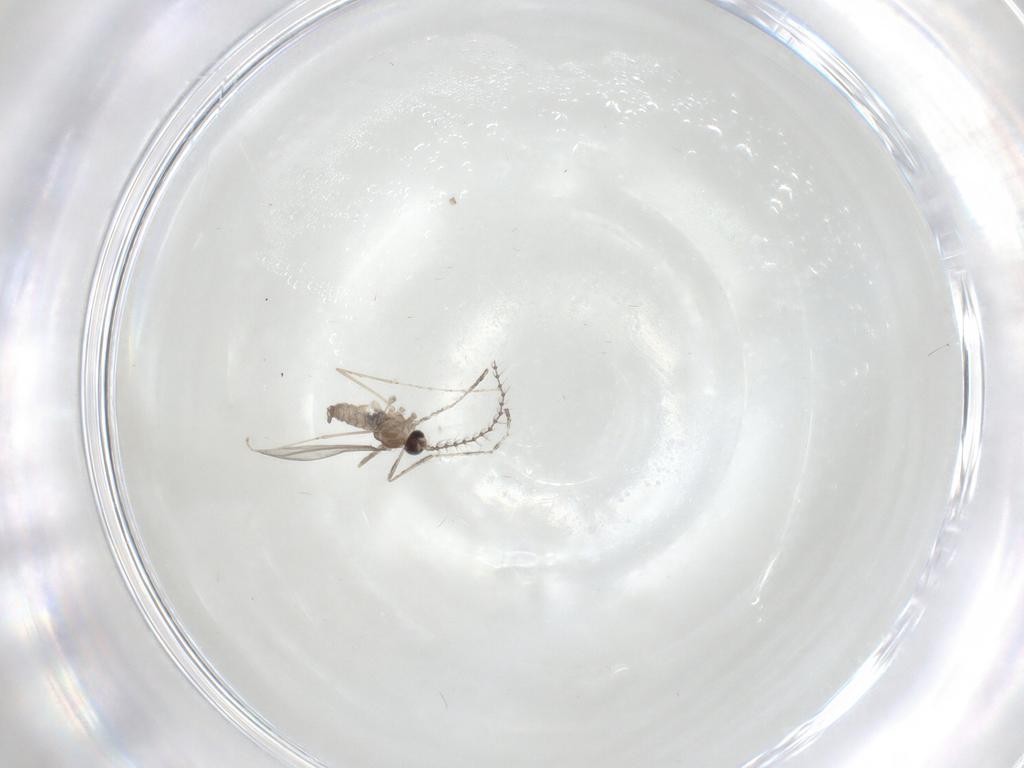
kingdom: Animalia
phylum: Arthropoda
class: Insecta
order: Diptera
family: Cecidomyiidae
